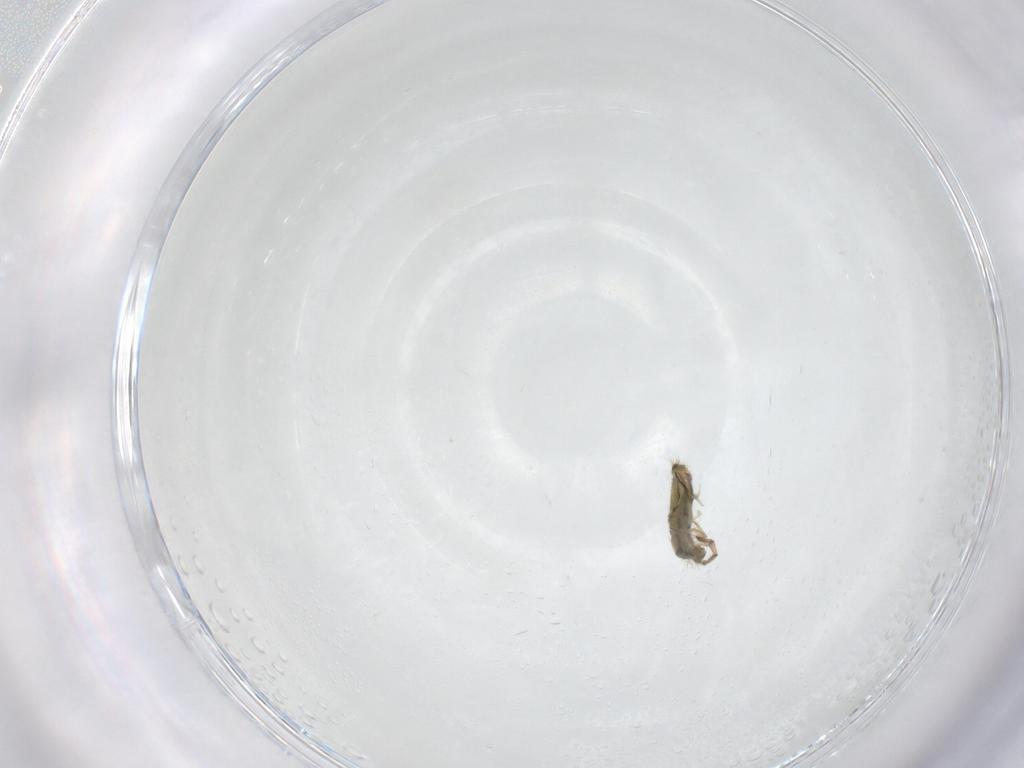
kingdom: Animalia
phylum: Arthropoda
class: Collembola
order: Entomobryomorpha
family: Entomobryidae
